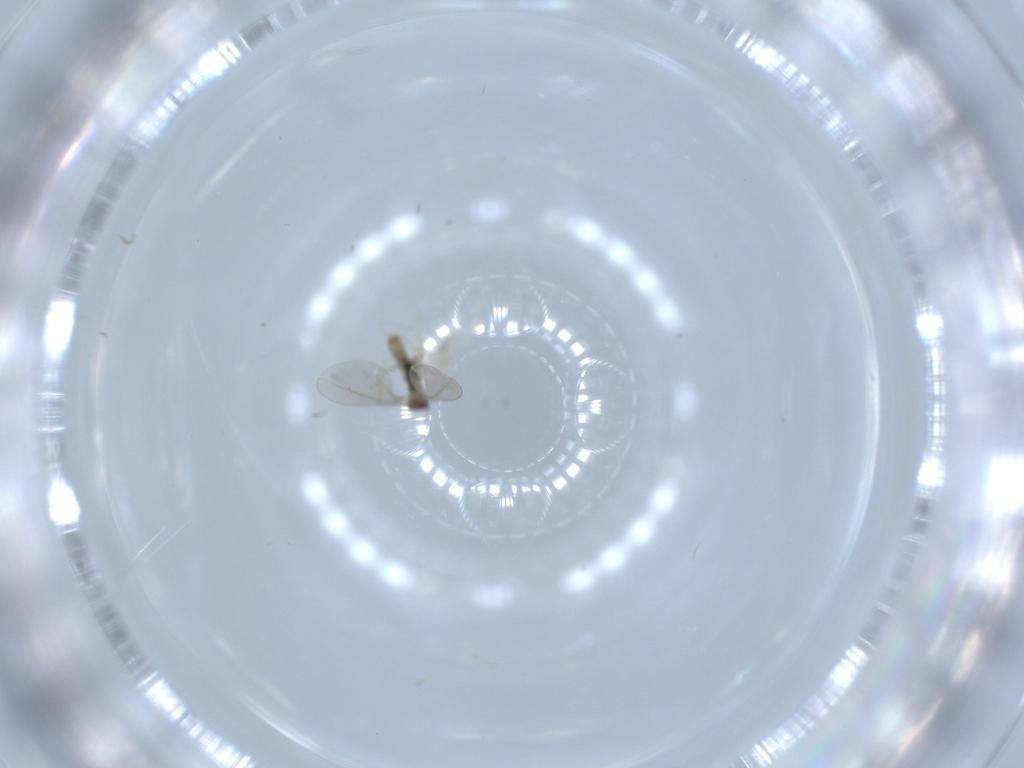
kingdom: Animalia
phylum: Arthropoda
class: Insecta
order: Diptera
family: Cecidomyiidae
